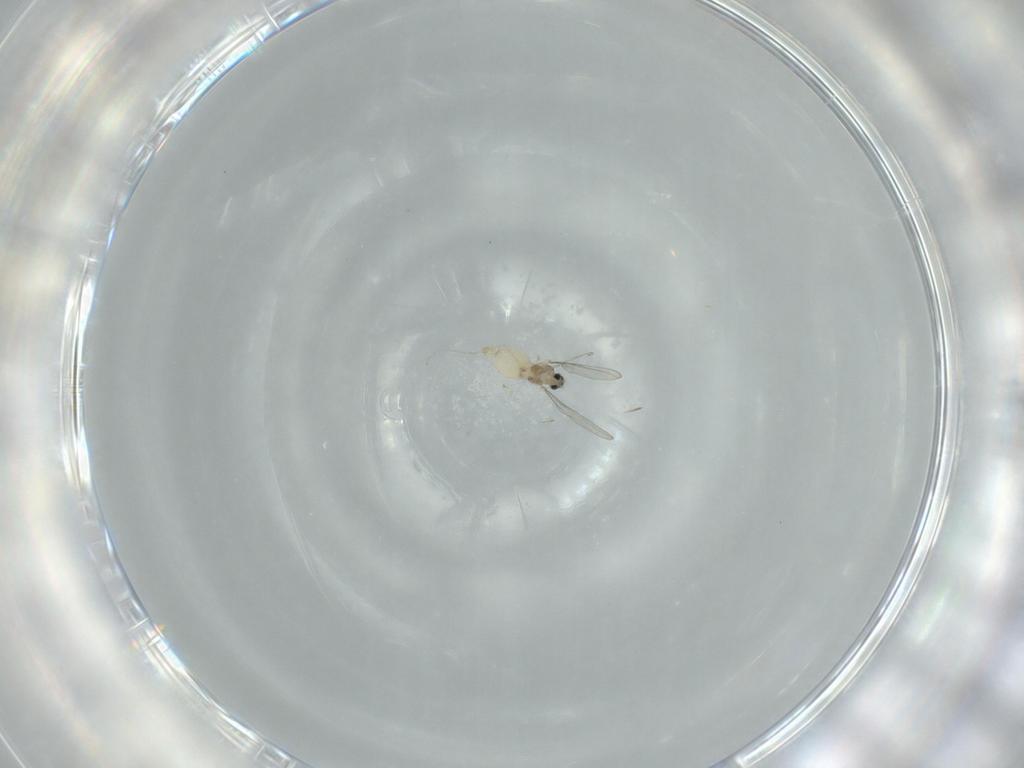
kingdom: Animalia
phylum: Arthropoda
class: Insecta
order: Diptera
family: Cecidomyiidae
